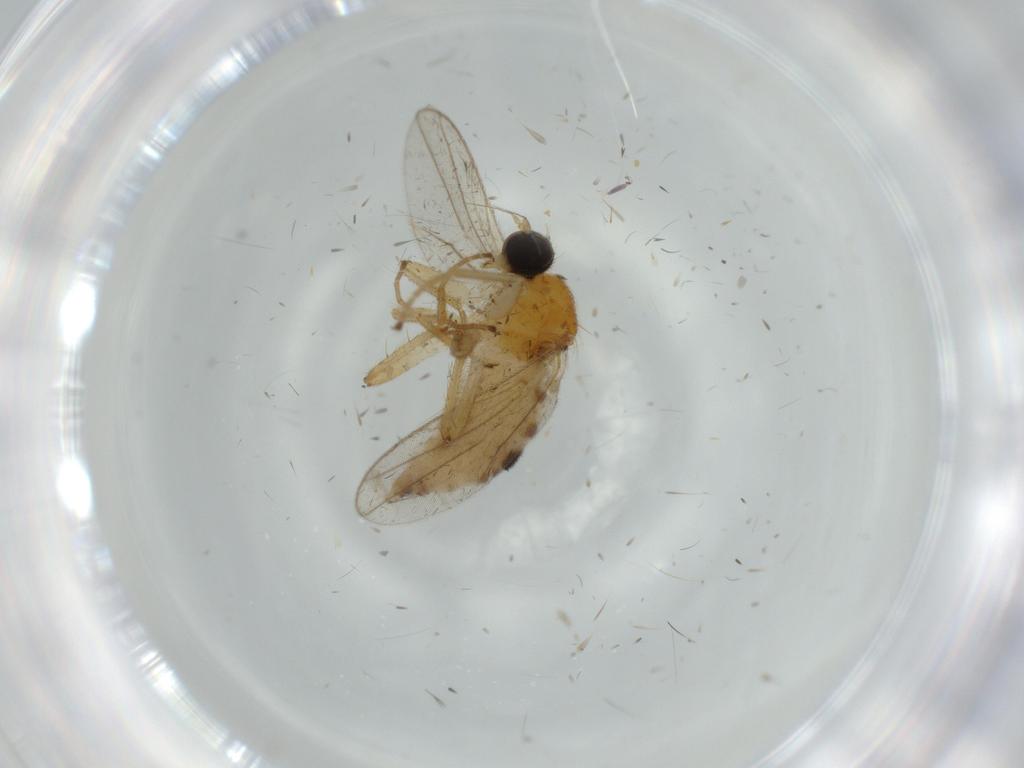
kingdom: Animalia
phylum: Arthropoda
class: Insecta
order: Diptera
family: Sciaridae
